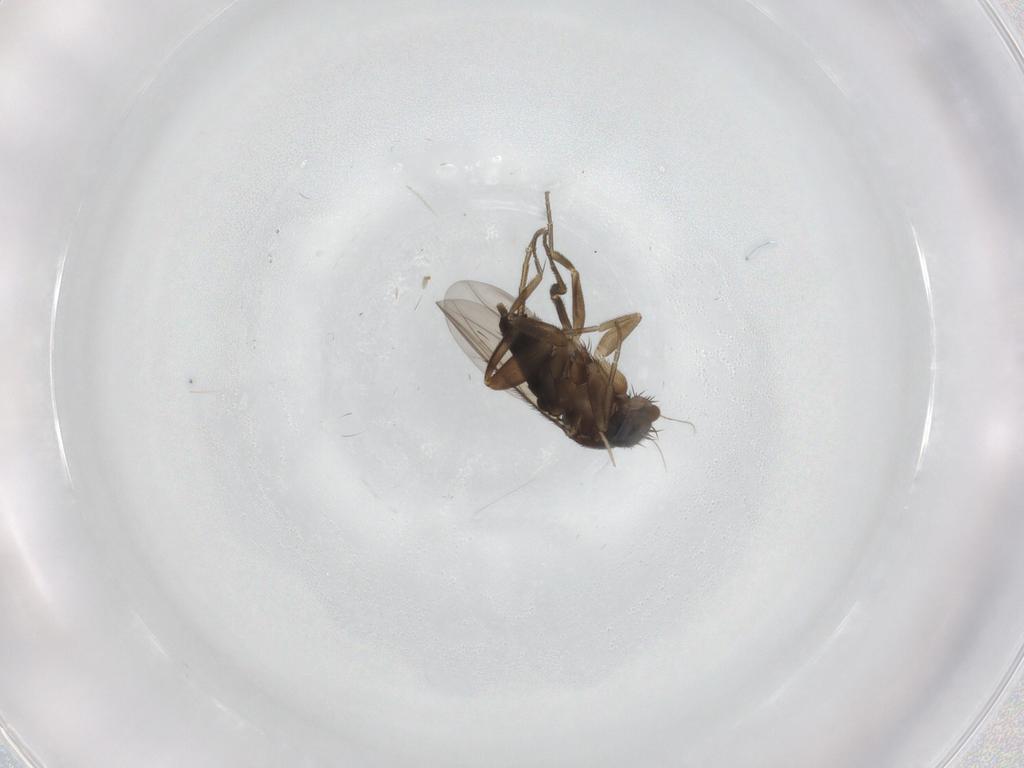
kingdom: Animalia
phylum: Arthropoda
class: Insecta
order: Diptera
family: Phoridae
